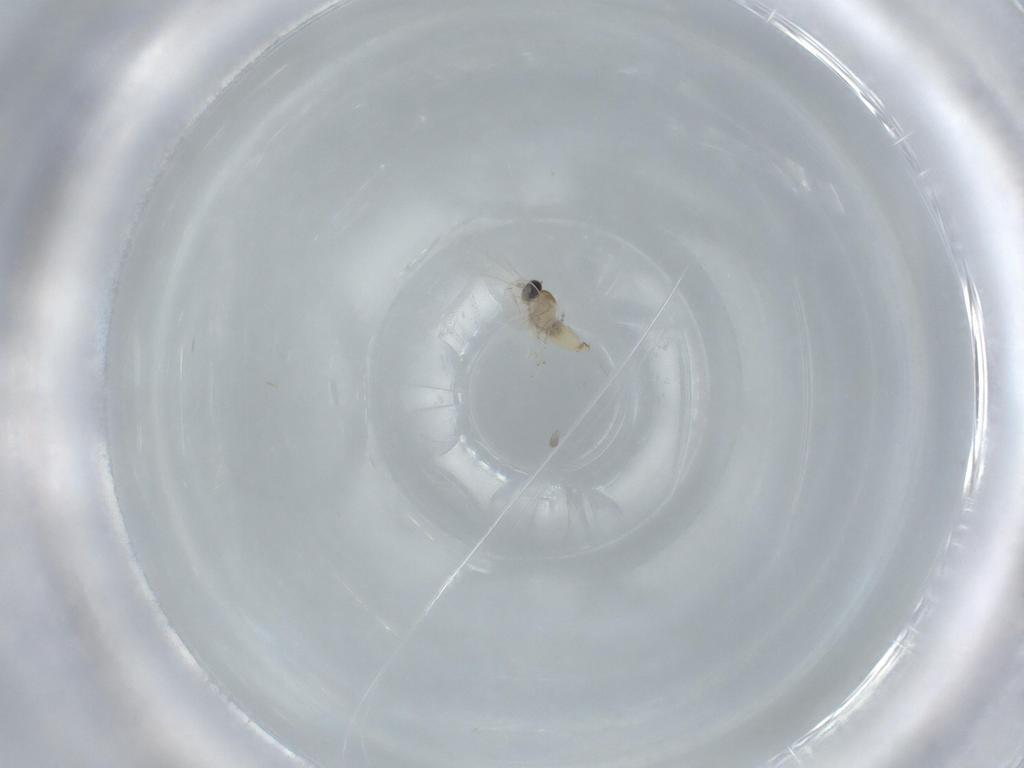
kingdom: Animalia
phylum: Arthropoda
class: Insecta
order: Diptera
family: Cecidomyiidae
